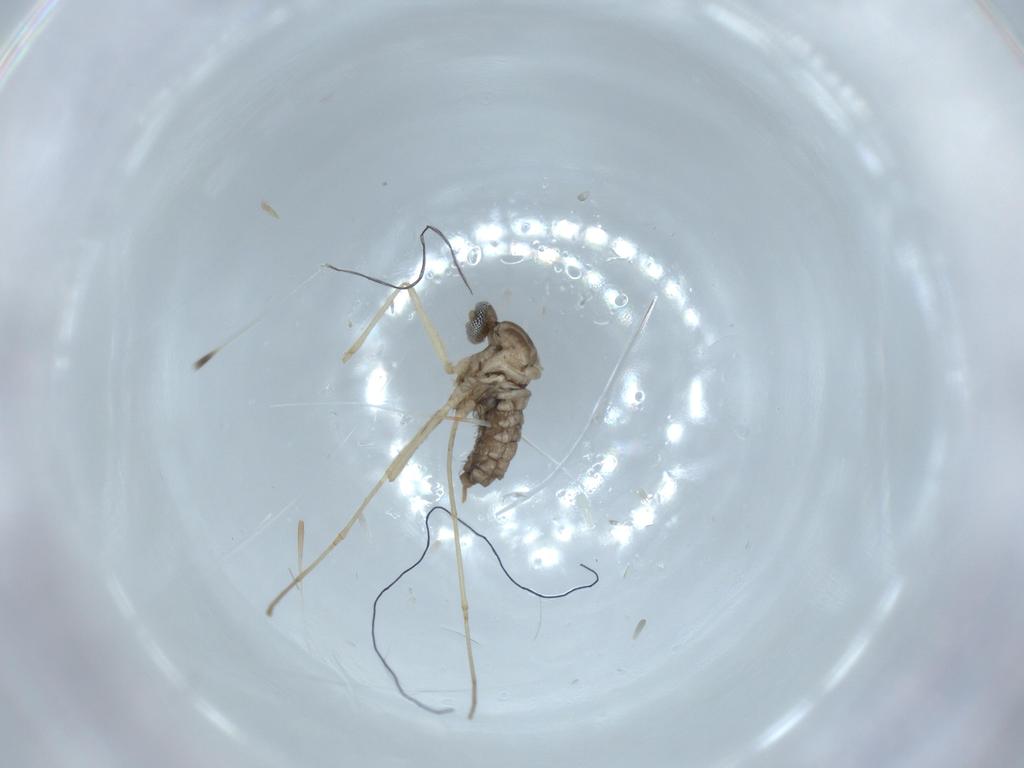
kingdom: Animalia
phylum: Arthropoda
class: Insecta
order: Diptera
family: Cecidomyiidae
